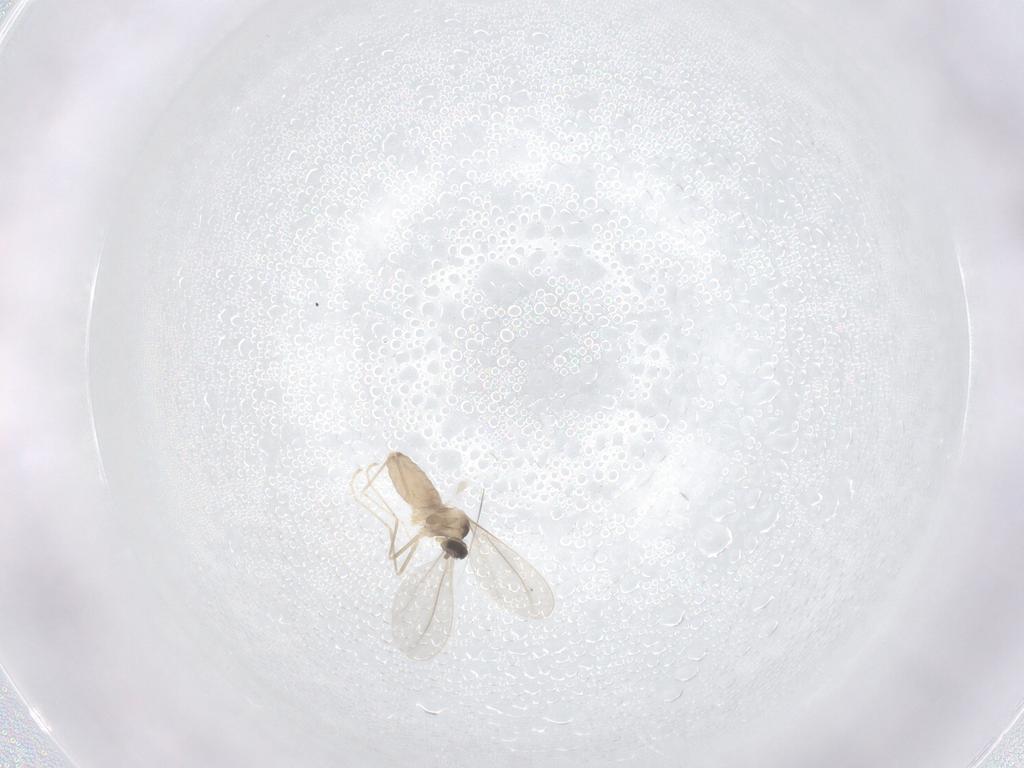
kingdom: Animalia
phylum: Arthropoda
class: Insecta
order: Diptera
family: Cecidomyiidae
